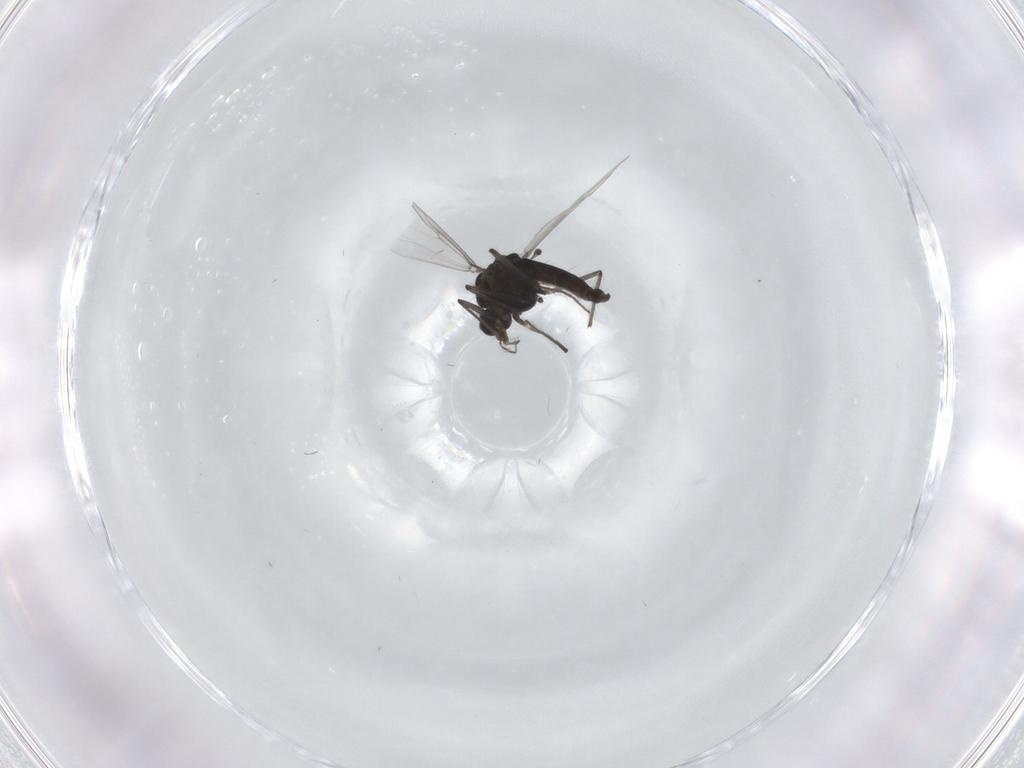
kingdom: Animalia
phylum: Arthropoda
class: Insecta
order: Diptera
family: Chironomidae
